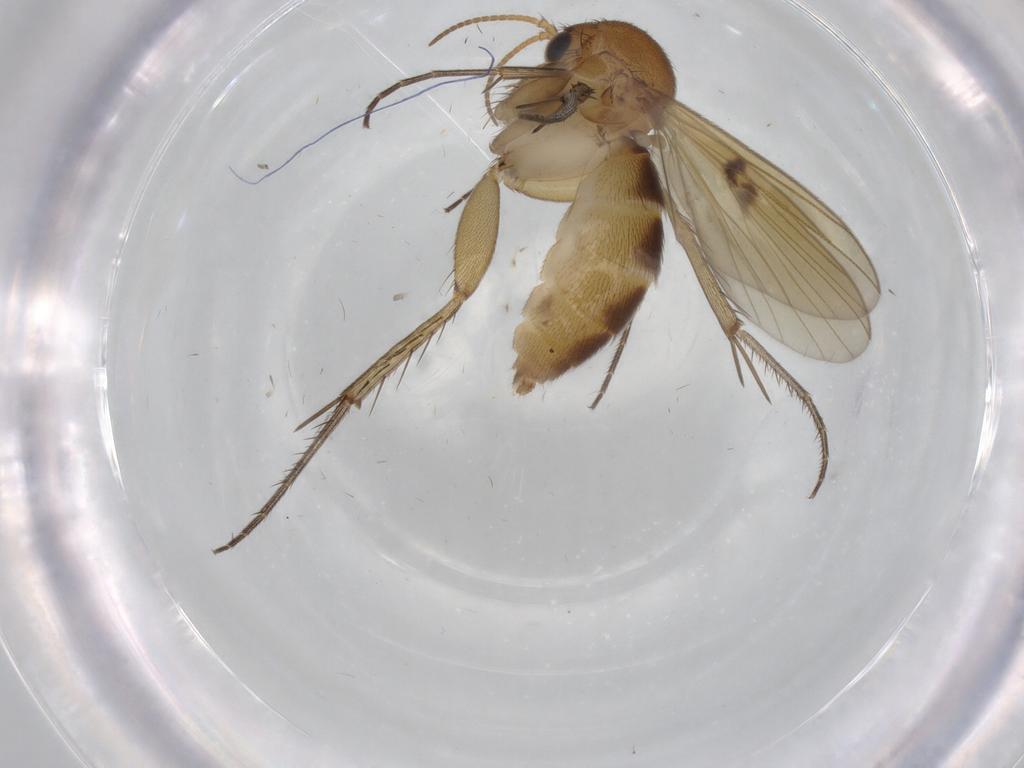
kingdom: Animalia
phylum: Arthropoda
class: Insecta
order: Diptera
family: Mycetophilidae
